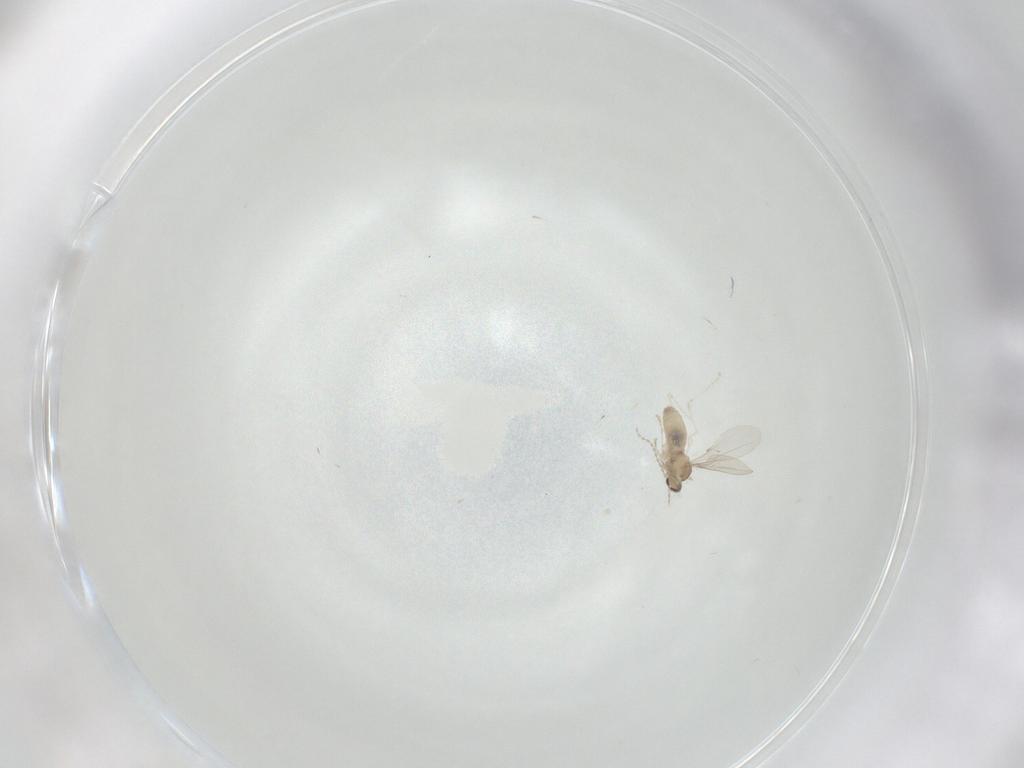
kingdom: Animalia
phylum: Arthropoda
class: Insecta
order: Diptera
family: Cecidomyiidae
